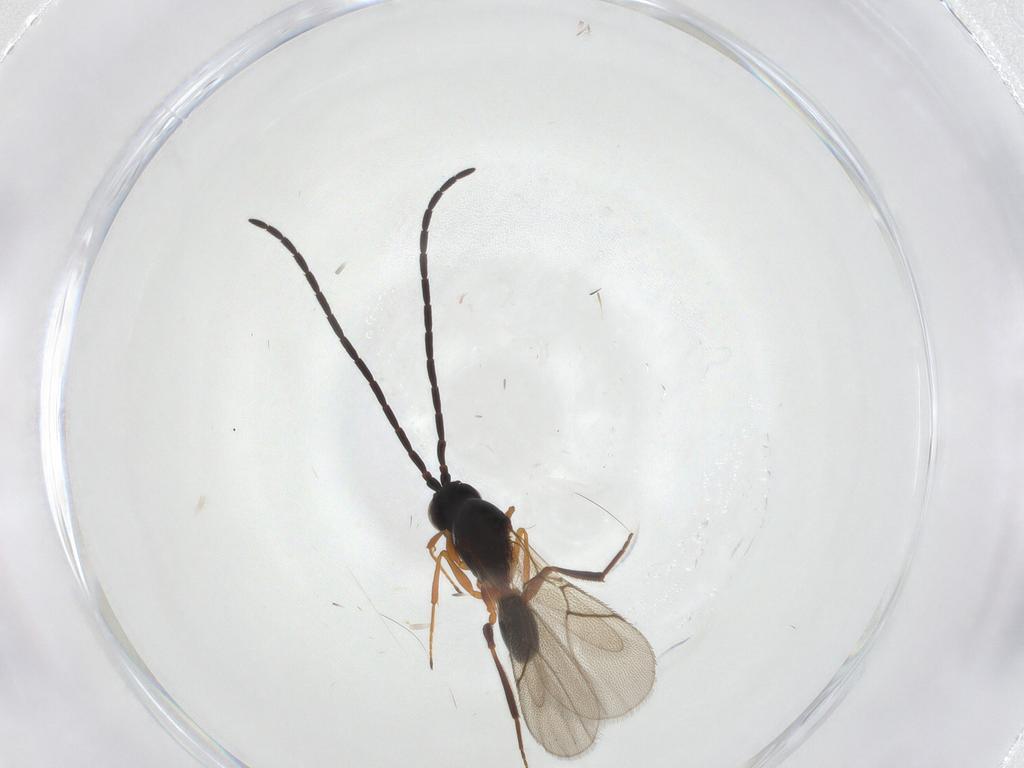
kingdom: Animalia
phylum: Arthropoda
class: Insecta
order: Hymenoptera
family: Figitidae
